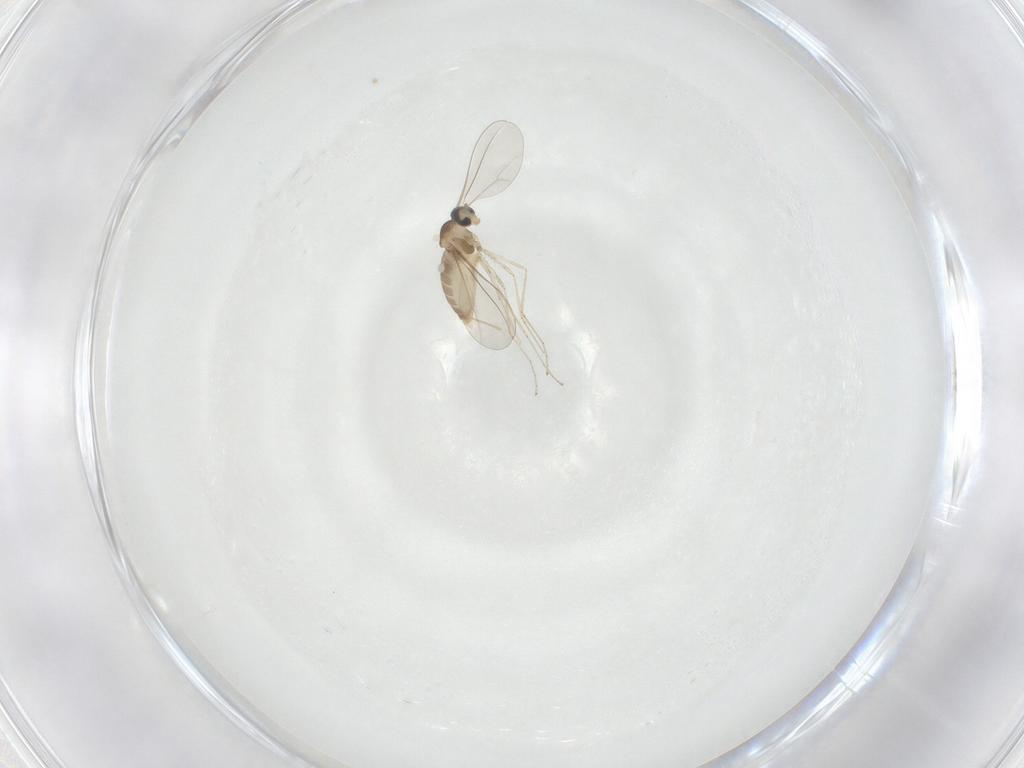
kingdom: Animalia
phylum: Arthropoda
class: Insecta
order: Diptera
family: Cecidomyiidae
